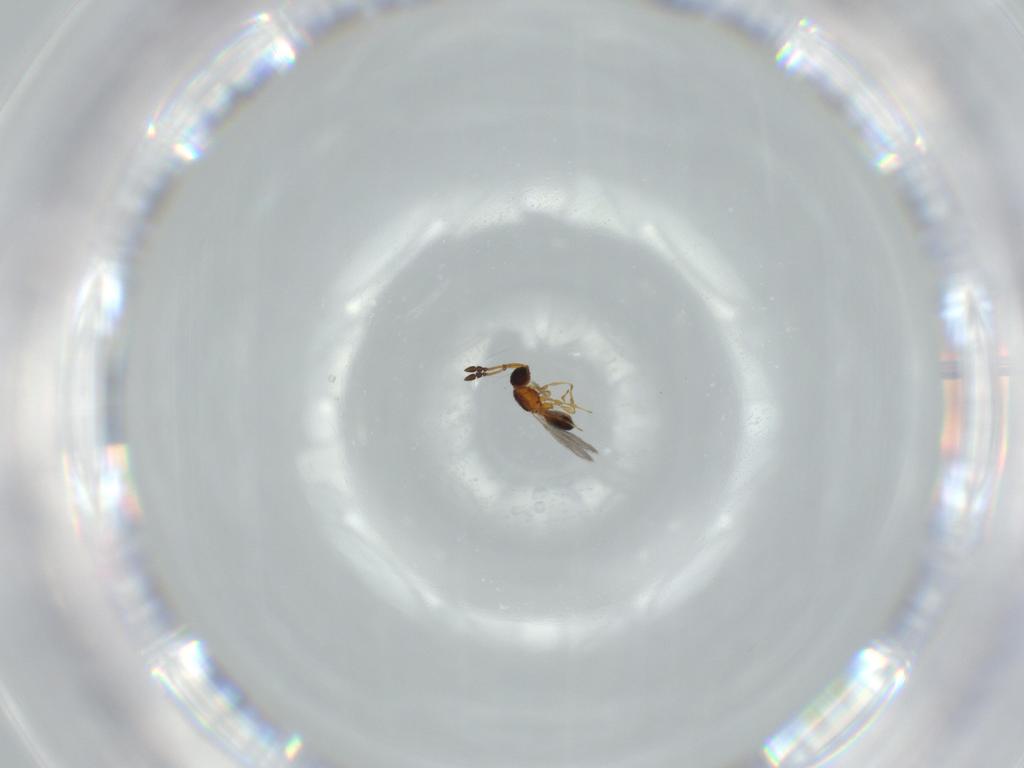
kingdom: Animalia
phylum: Arthropoda
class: Insecta
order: Hymenoptera
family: Diapriidae
